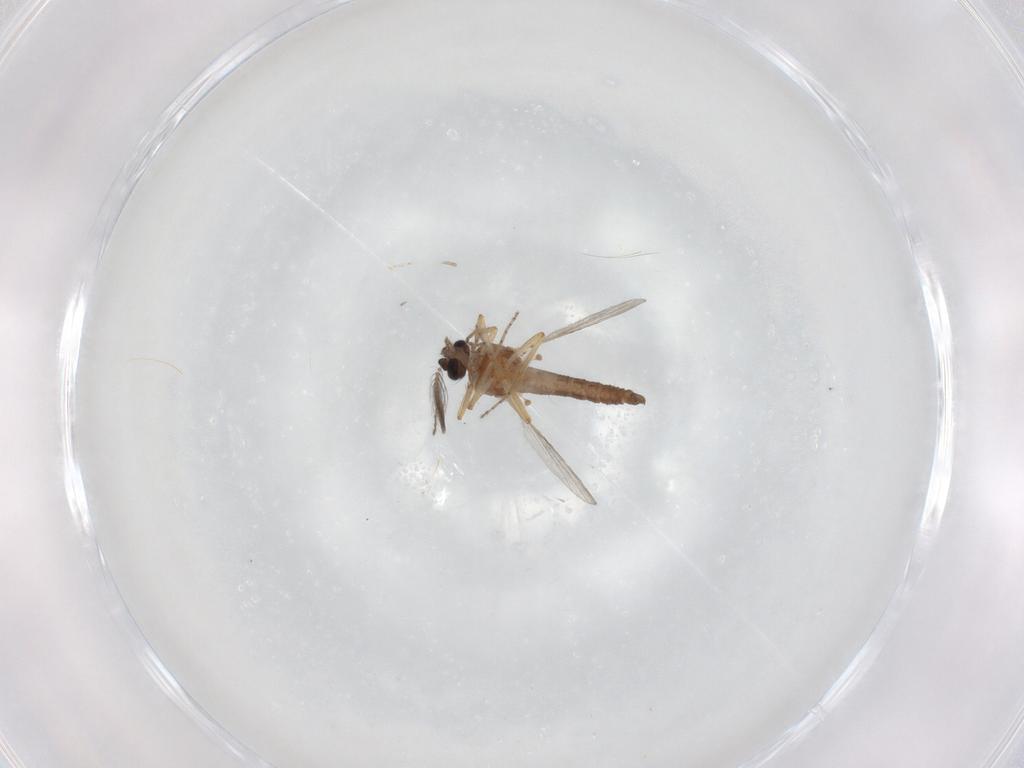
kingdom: Animalia
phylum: Arthropoda
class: Insecta
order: Diptera
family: Ceratopogonidae
